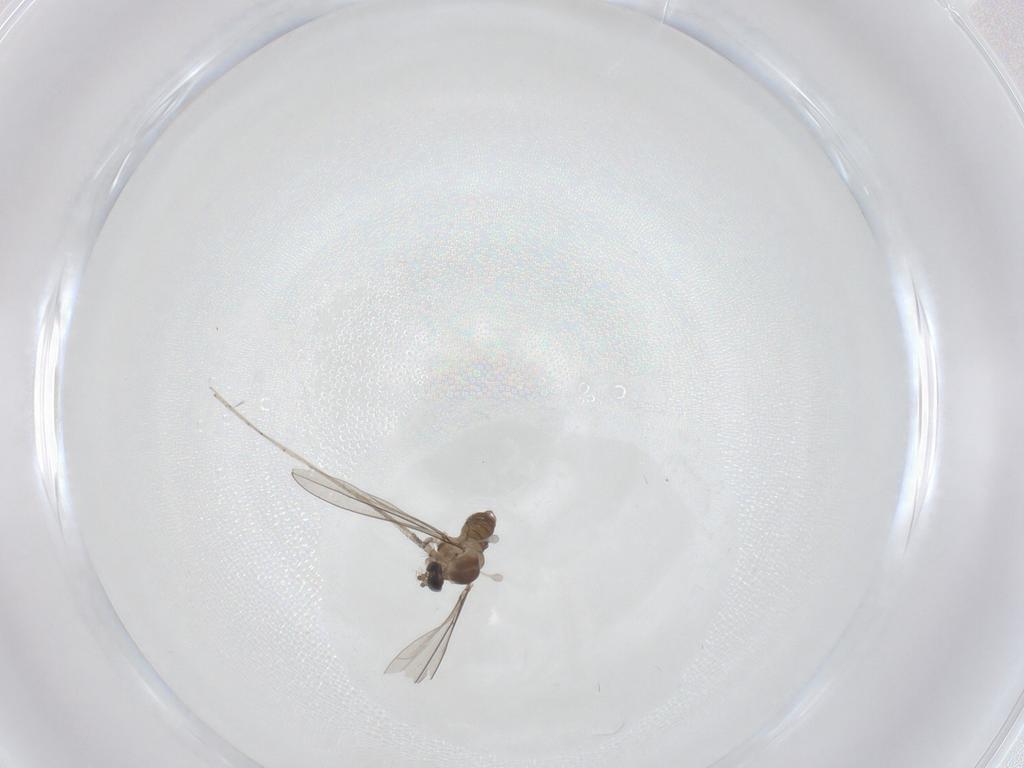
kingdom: Animalia
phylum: Arthropoda
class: Insecta
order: Diptera
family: Cecidomyiidae
